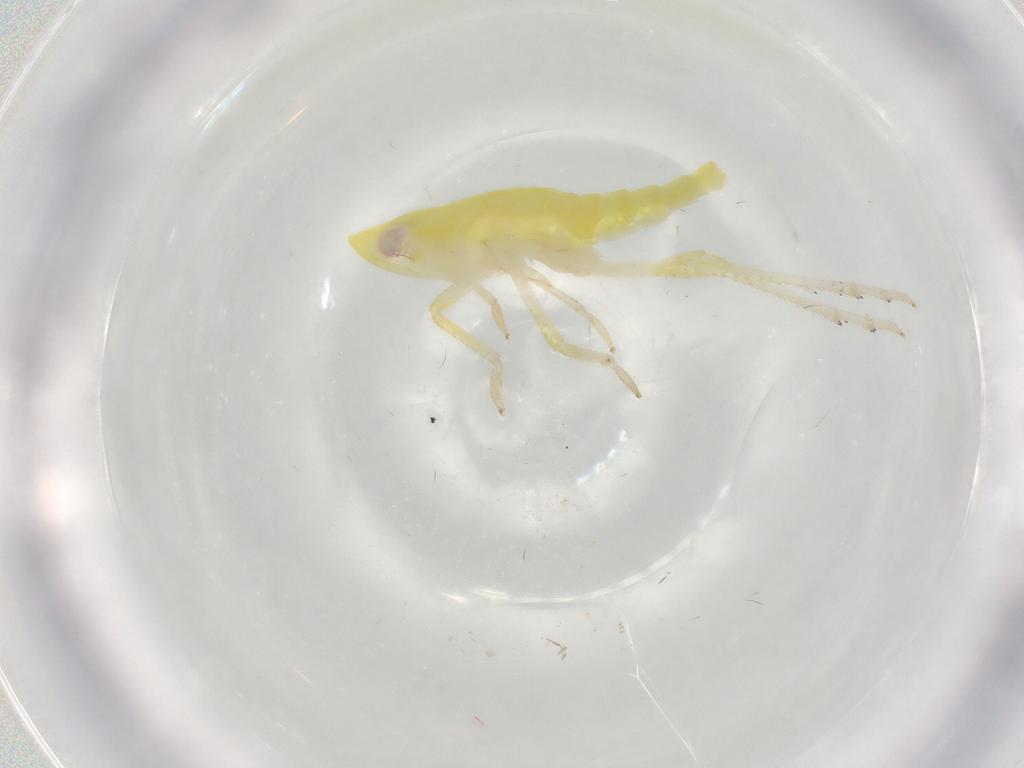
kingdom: Animalia
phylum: Arthropoda
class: Insecta
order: Hemiptera
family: Tropiduchidae
